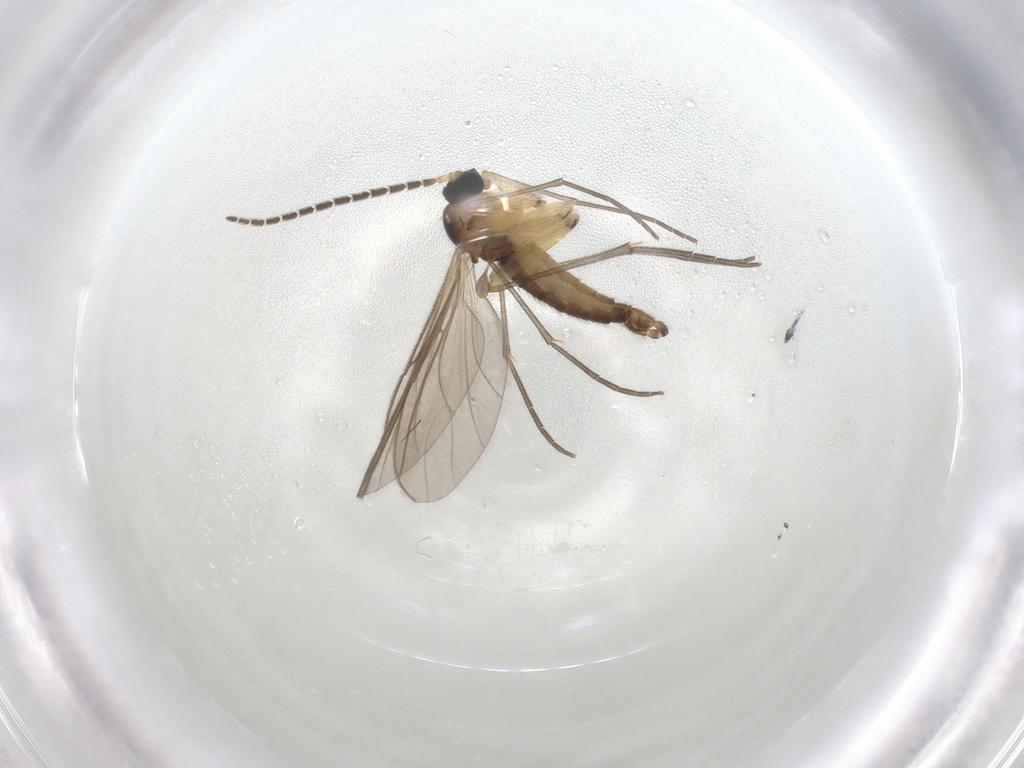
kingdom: Animalia
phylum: Arthropoda
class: Insecta
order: Diptera
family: Sciaridae
